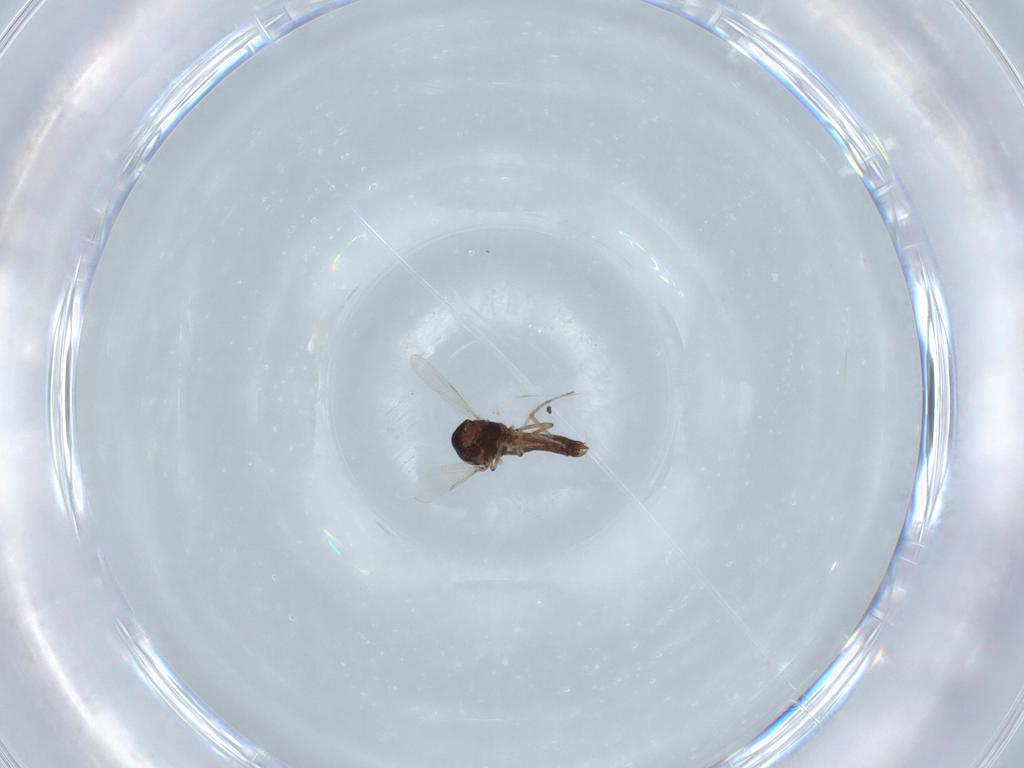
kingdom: Animalia
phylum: Arthropoda
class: Insecta
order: Diptera
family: Ceratopogonidae
